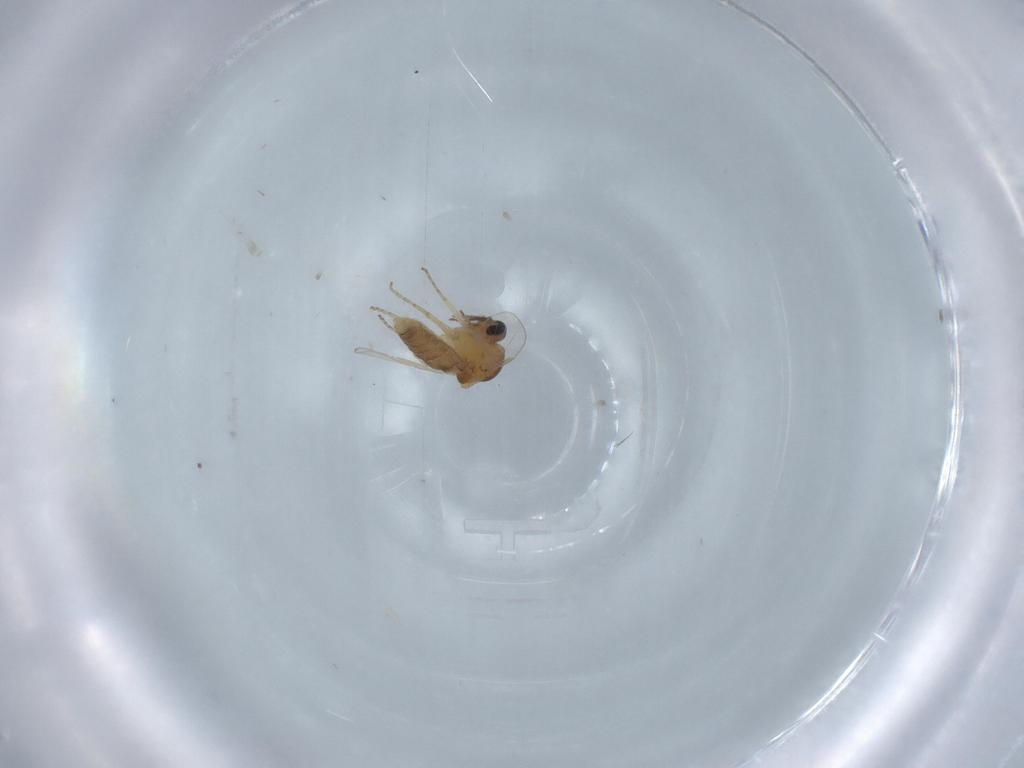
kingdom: Animalia
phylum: Arthropoda
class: Insecta
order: Diptera
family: Ceratopogonidae
